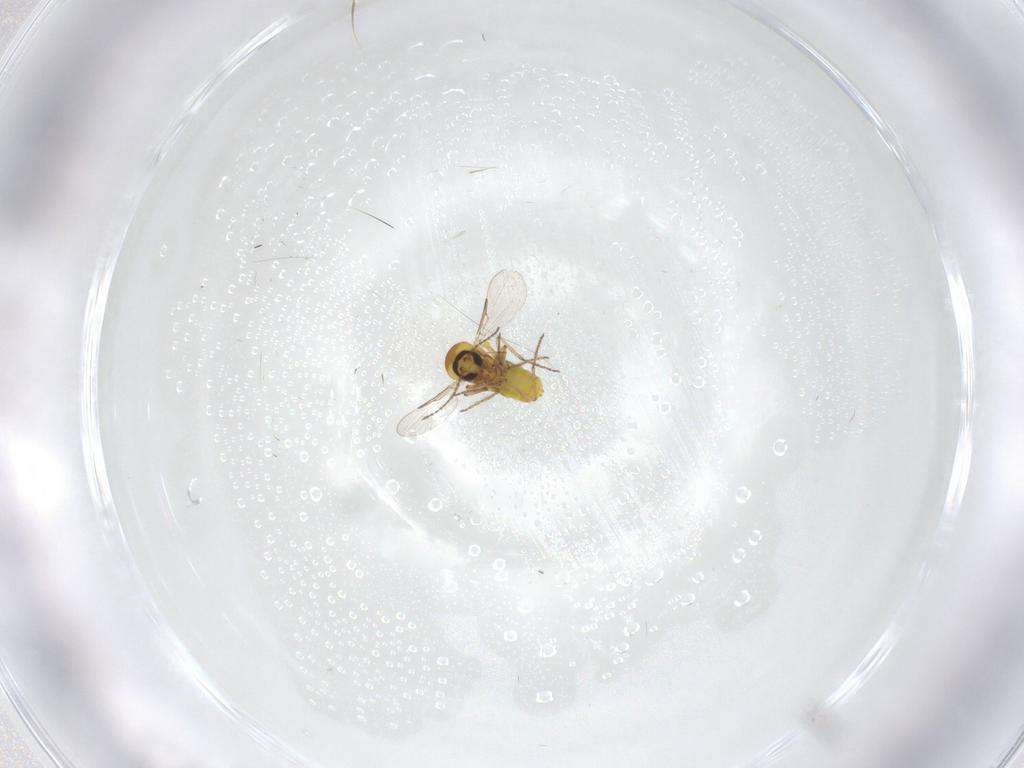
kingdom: Animalia
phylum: Arthropoda
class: Insecta
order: Diptera
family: Ceratopogonidae
